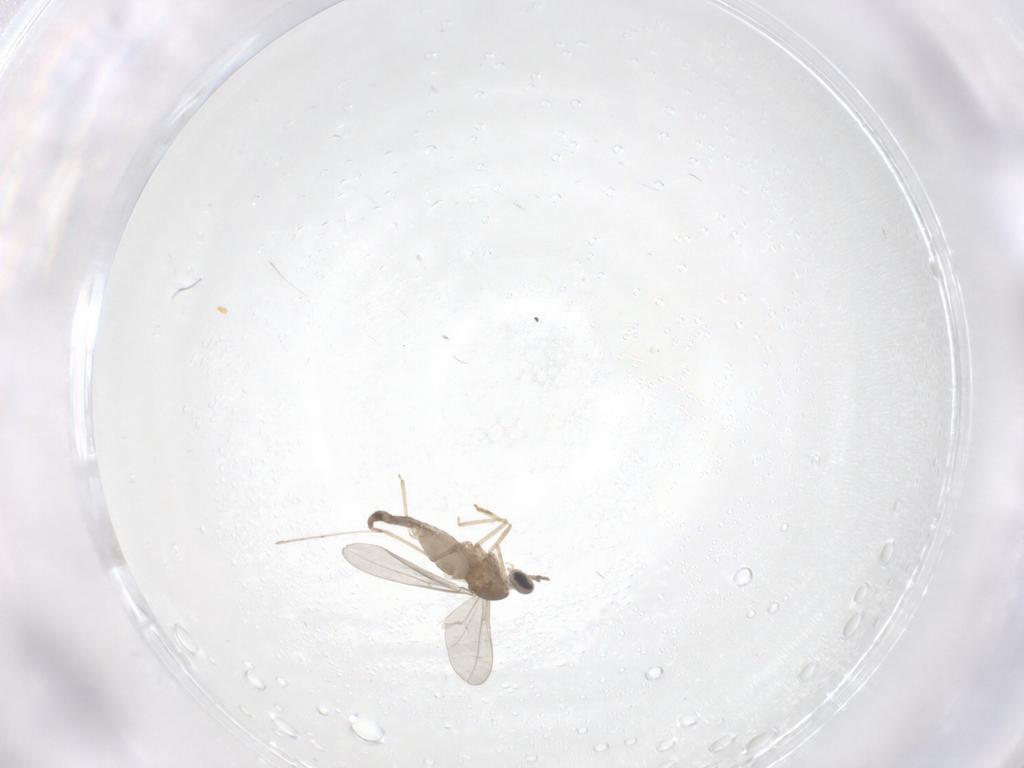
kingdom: Animalia
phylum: Arthropoda
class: Insecta
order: Diptera
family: Cecidomyiidae
